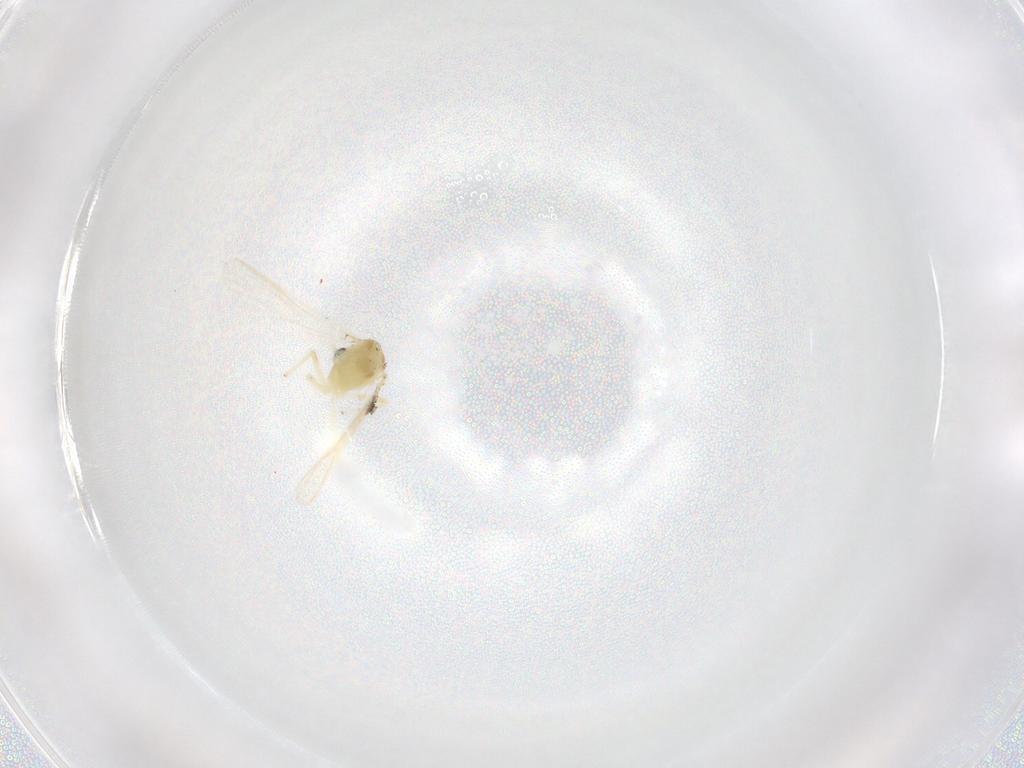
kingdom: Animalia
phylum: Arthropoda
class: Insecta
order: Diptera
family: Chironomidae
